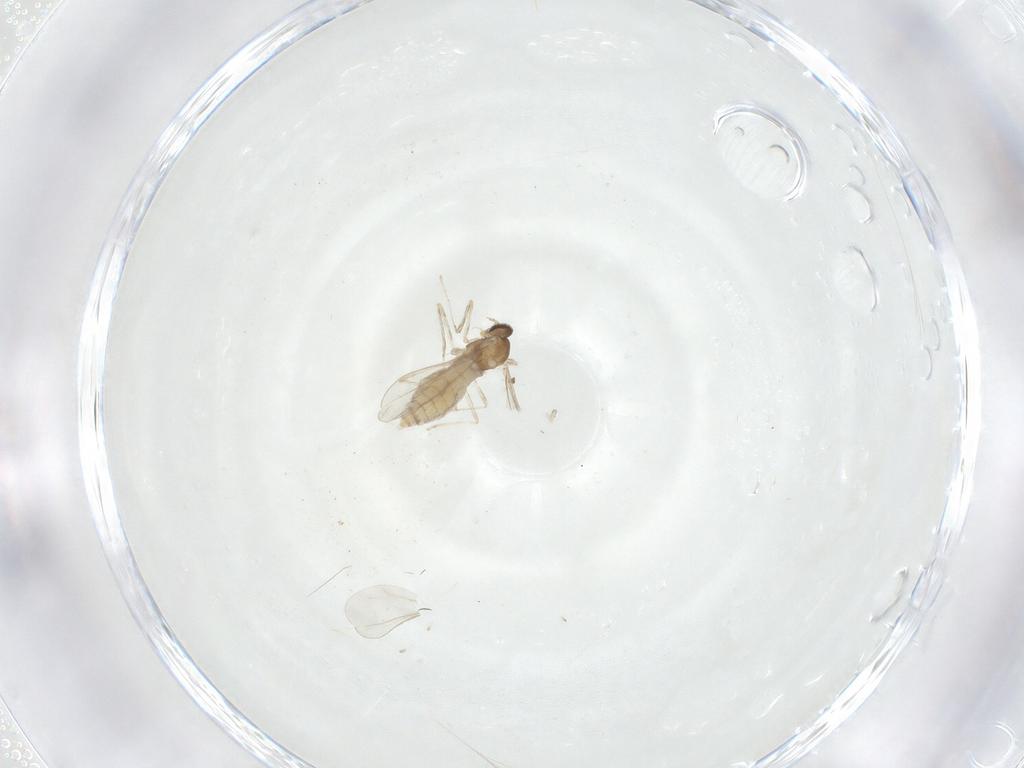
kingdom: Animalia
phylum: Arthropoda
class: Insecta
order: Diptera
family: Cecidomyiidae
